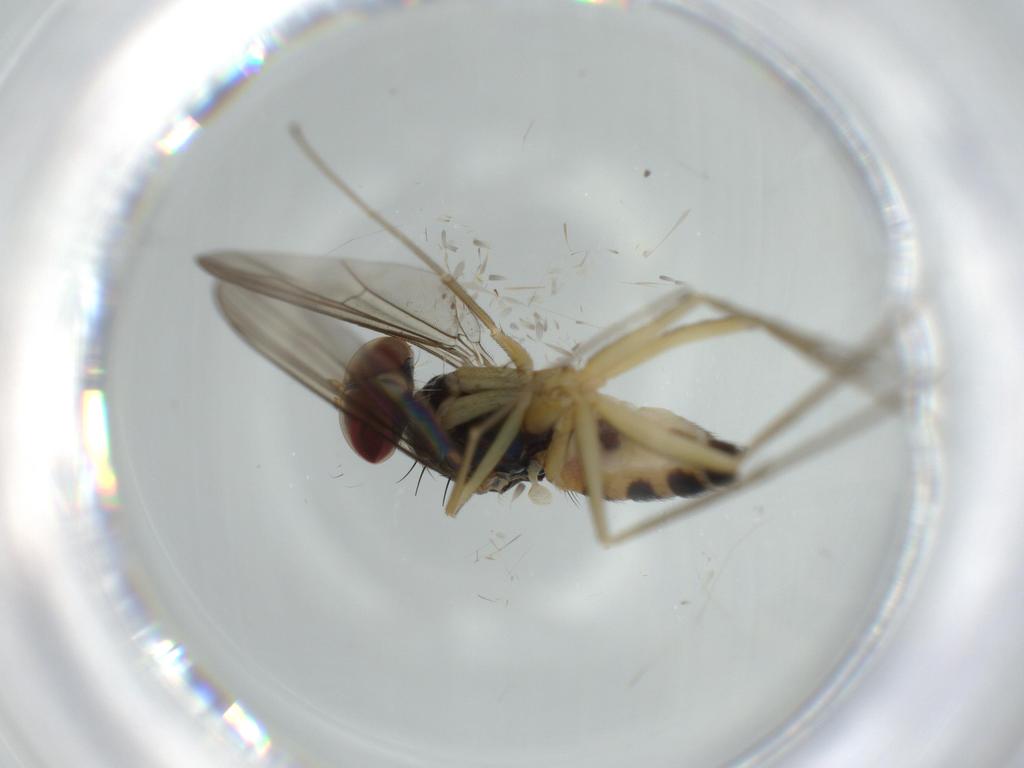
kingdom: Animalia
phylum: Arthropoda
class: Insecta
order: Diptera
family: Dolichopodidae
